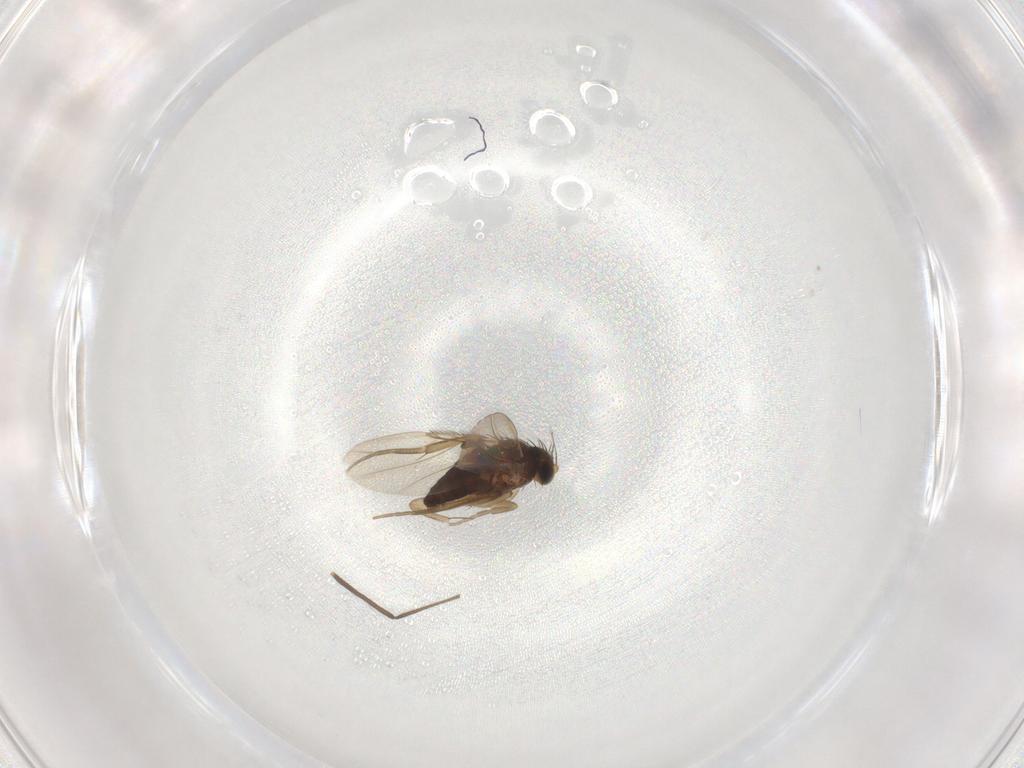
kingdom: Animalia
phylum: Arthropoda
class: Insecta
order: Diptera
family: Phoridae
